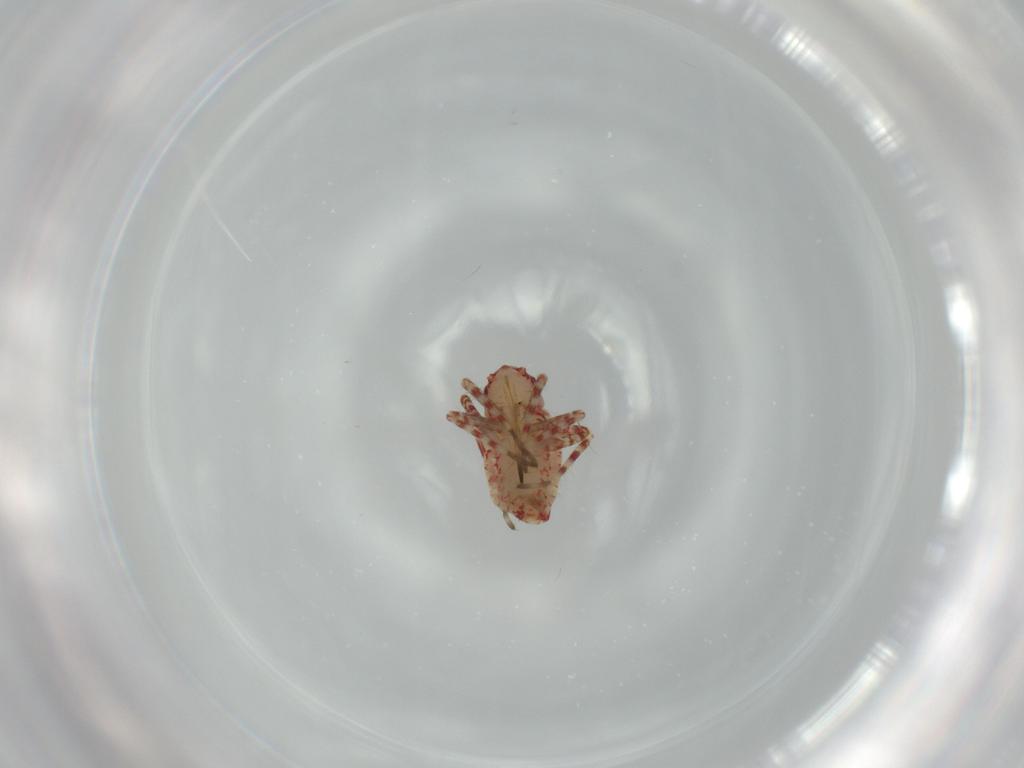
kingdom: Animalia
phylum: Arthropoda
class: Insecta
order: Hemiptera
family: Miridae
